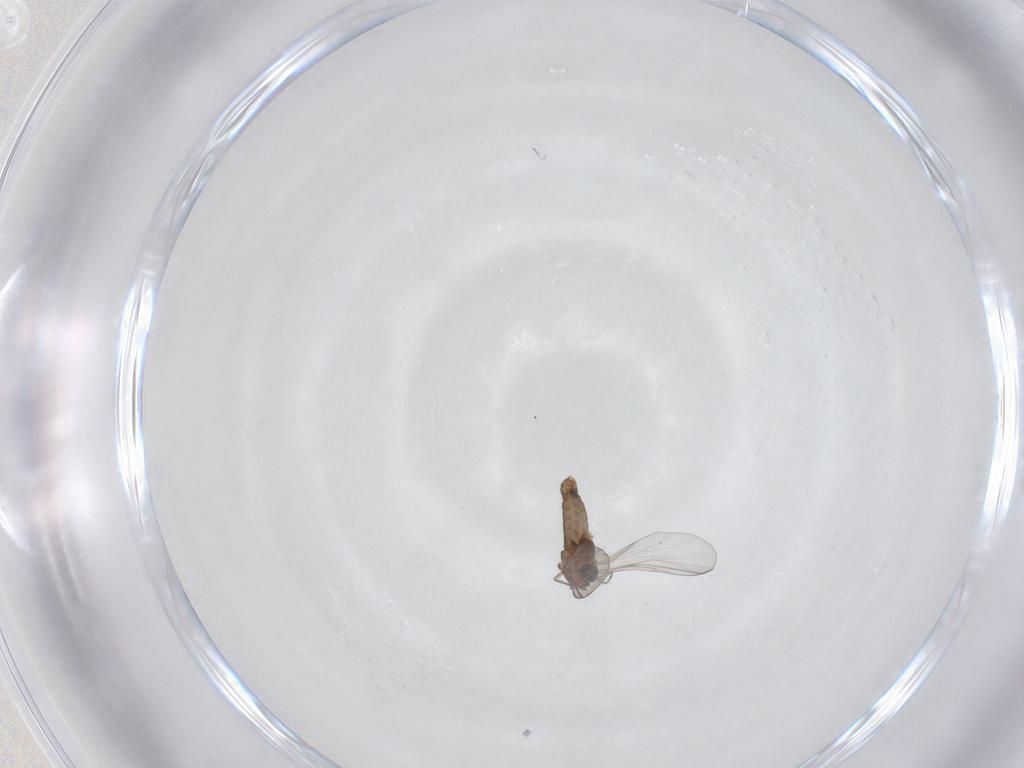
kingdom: Animalia
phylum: Arthropoda
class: Insecta
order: Diptera
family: Chironomidae
